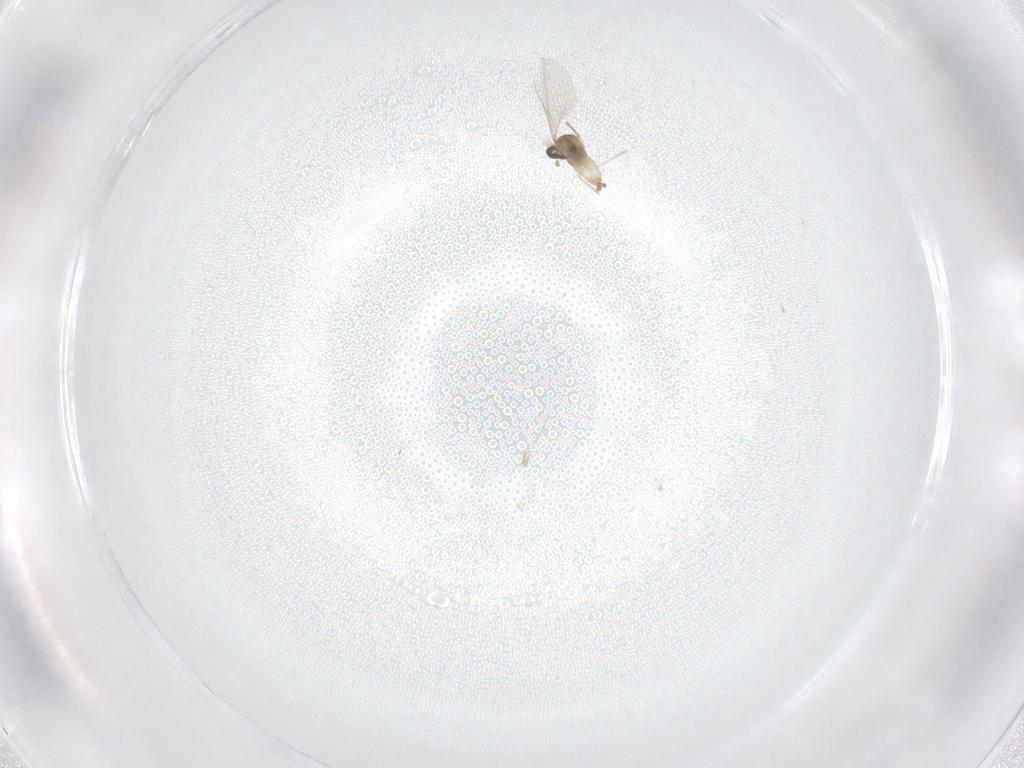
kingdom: Animalia
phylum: Arthropoda
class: Insecta
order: Diptera
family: Cecidomyiidae
